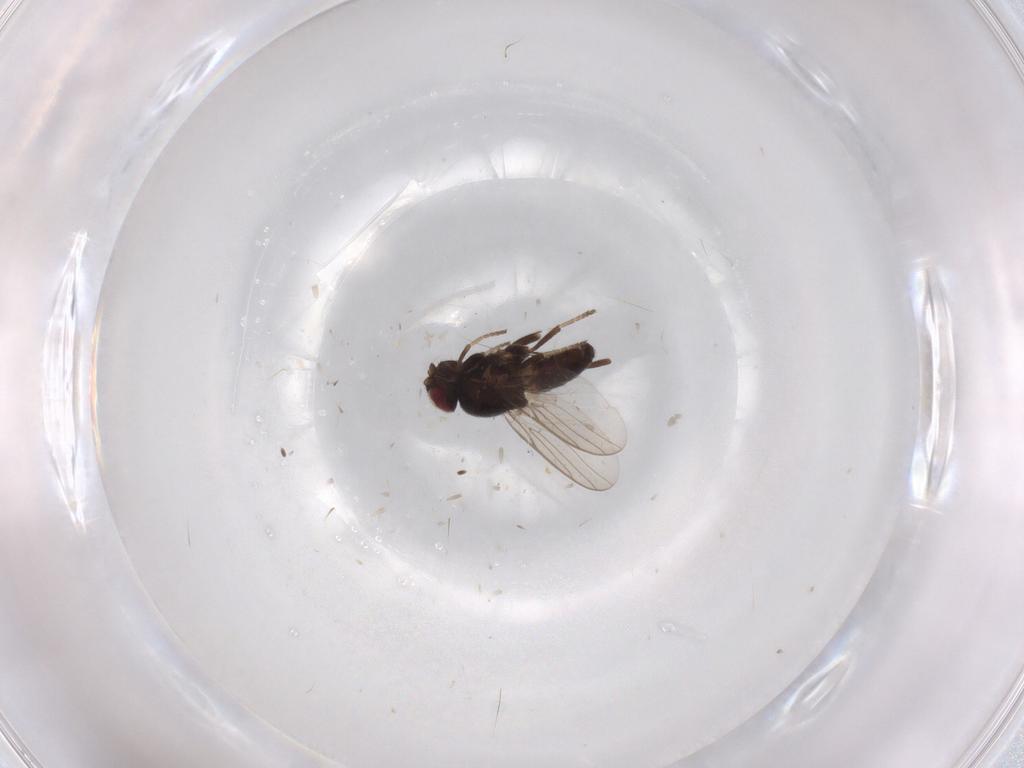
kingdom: Animalia
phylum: Arthropoda
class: Insecta
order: Diptera
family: Chloropidae
